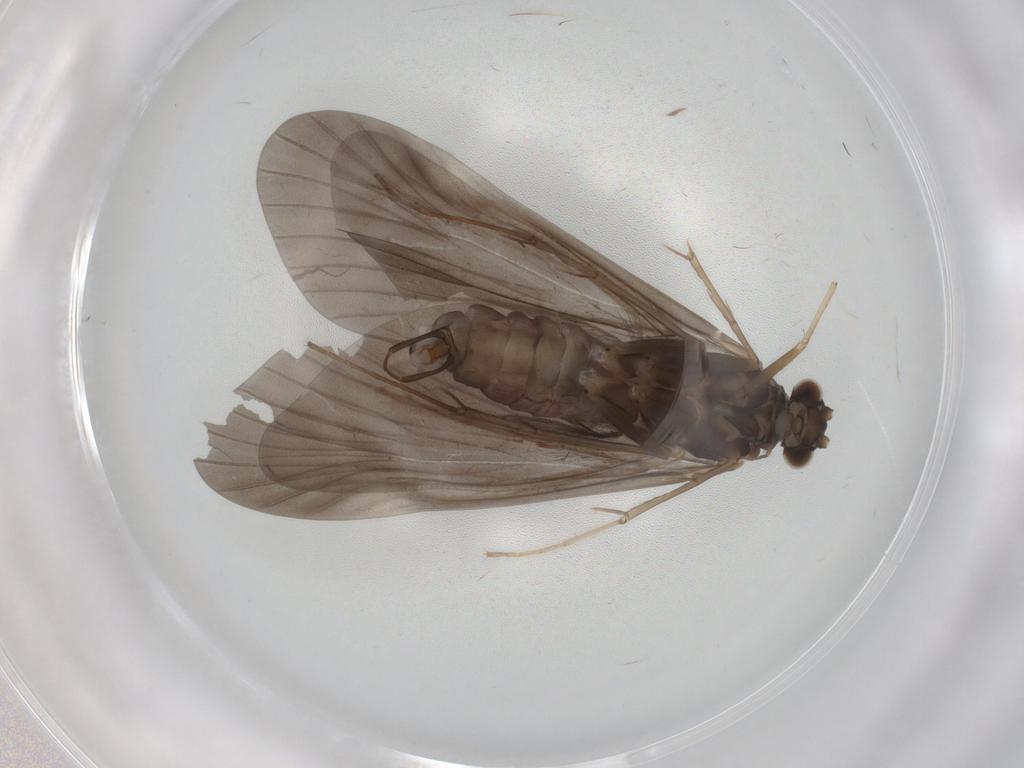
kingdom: Animalia
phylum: Arthropoda
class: Insecta
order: Trichoptera
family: Hydropsychidae
